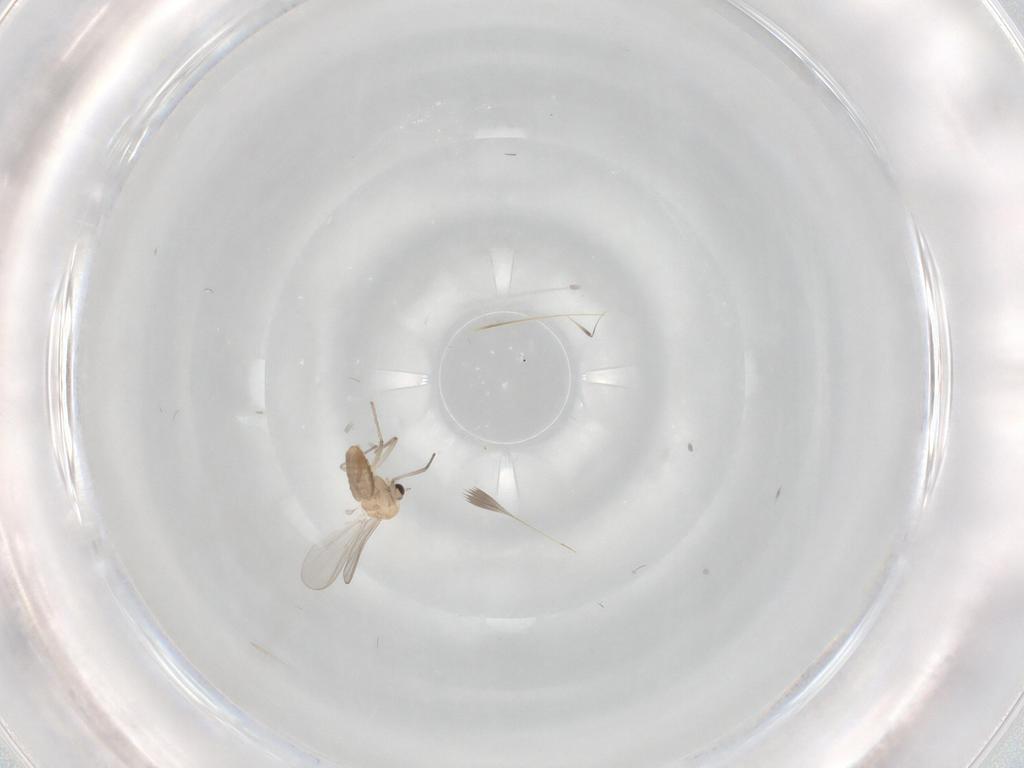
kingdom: Animalia
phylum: Arthropoda
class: Insecta
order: Diptera
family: Chironomidae
